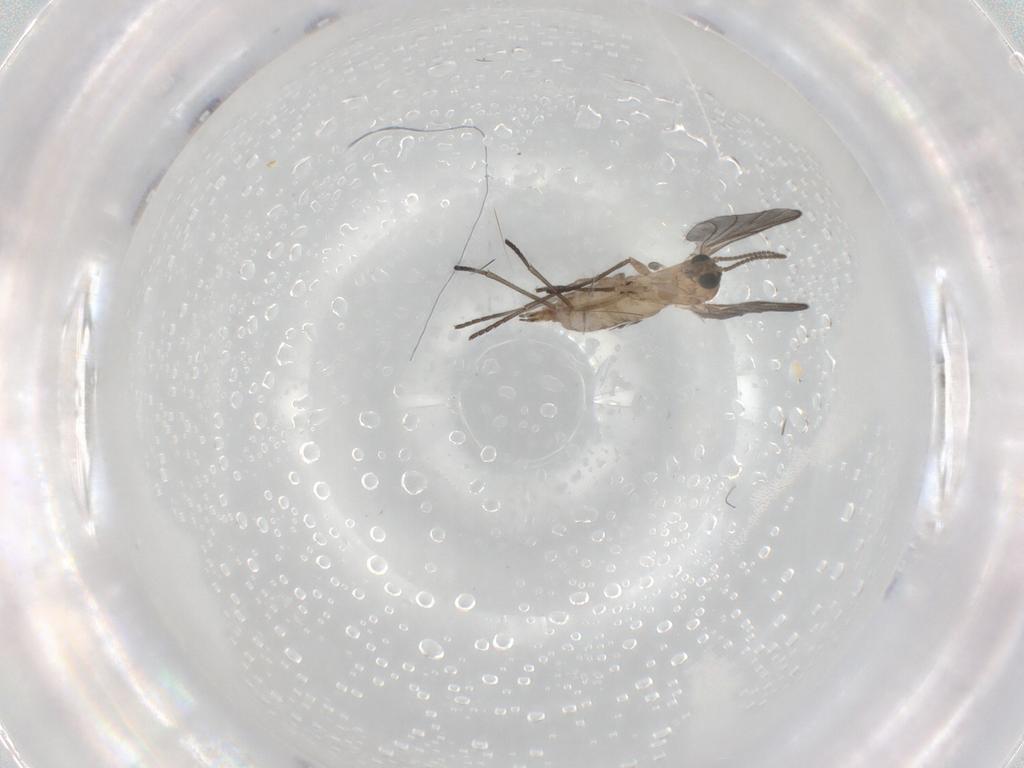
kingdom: Animalia
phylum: Arthropoda
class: Insecta
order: Diptera
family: Sciaridae
